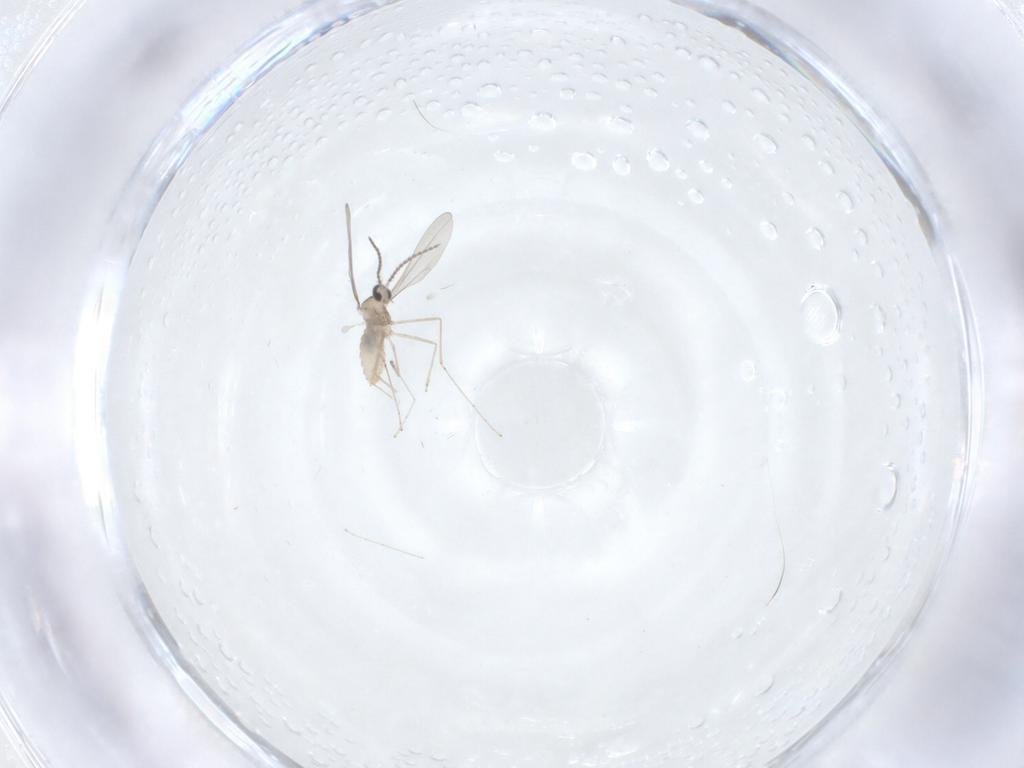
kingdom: Animalia
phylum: Arthropoda
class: Insecta
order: Diptera
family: Cecidomyiidae
